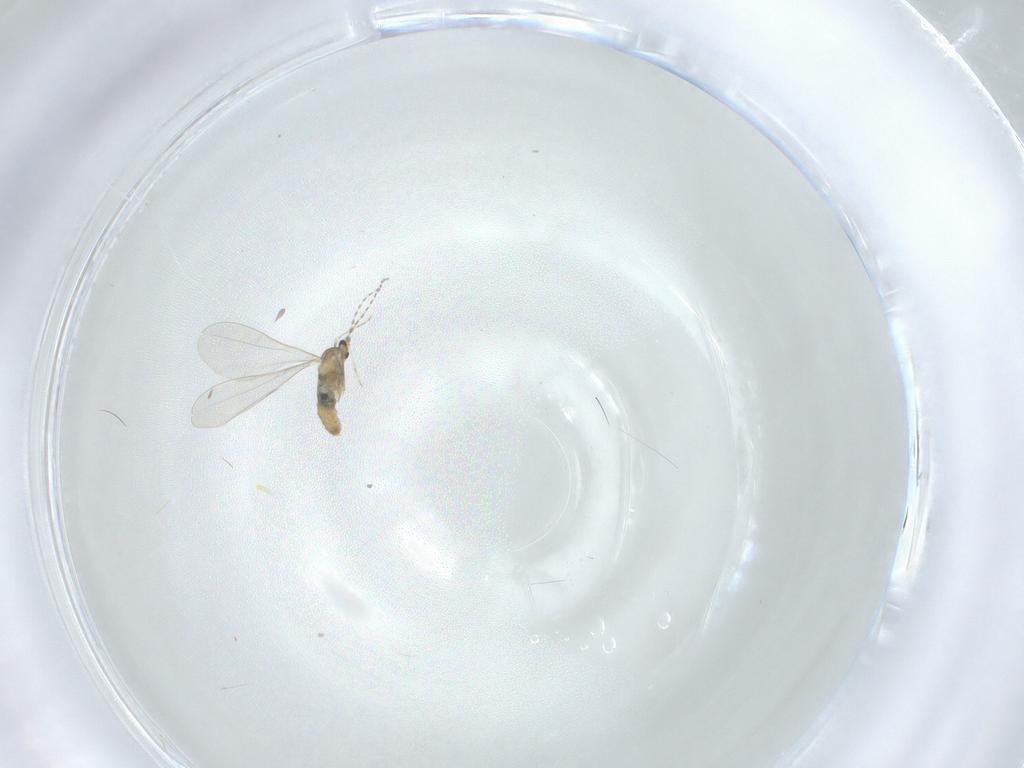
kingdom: Animalia
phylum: Arthropoda
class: Insecta
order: Diptera
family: Cecidomyiidae
